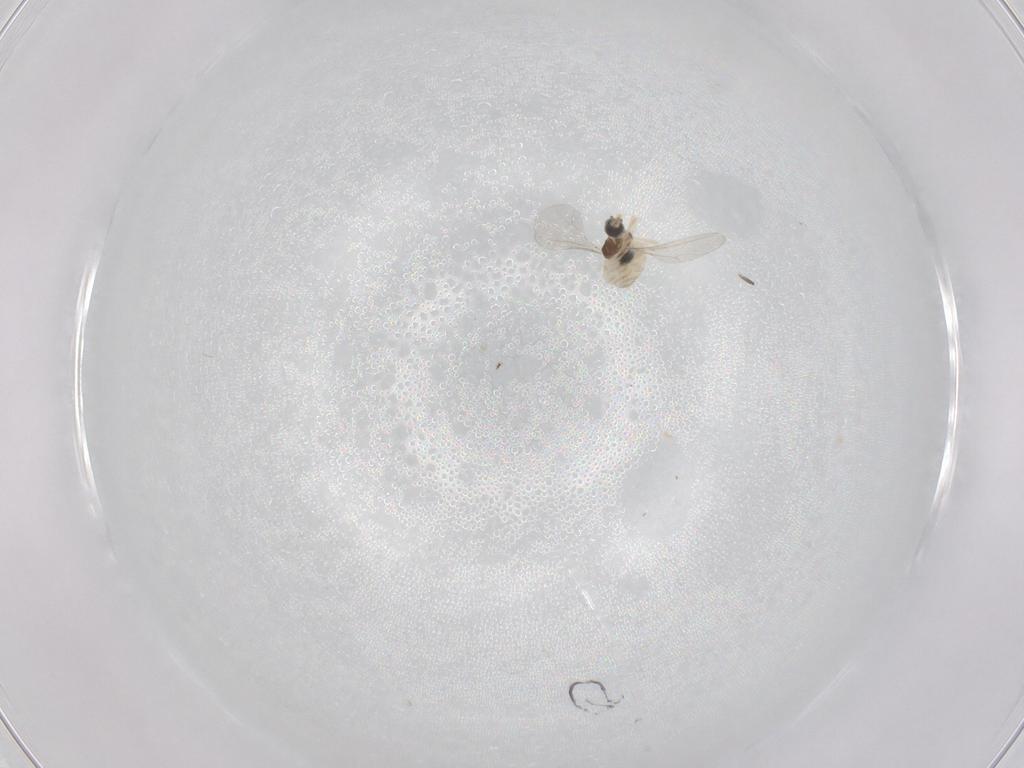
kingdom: Animalia
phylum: Arthropoda
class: Insecta
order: Diptera
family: Cecidomyiidae
